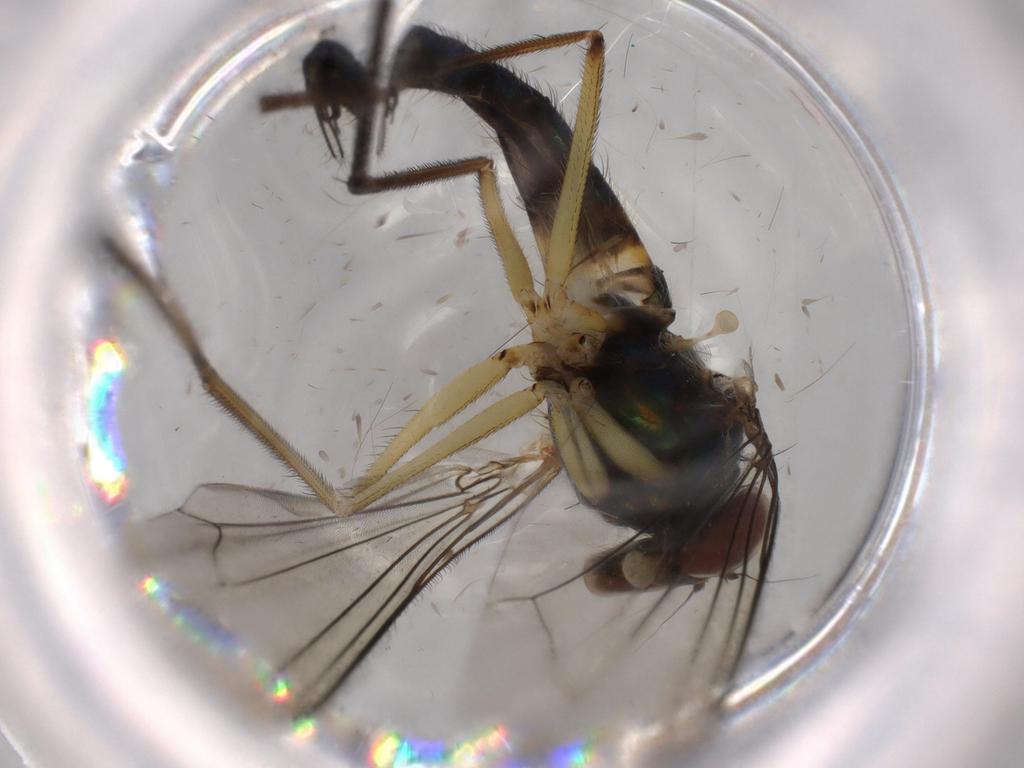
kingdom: Animalia
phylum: Arthropoda
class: Insecta
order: Diptera
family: Dolichopodidae
